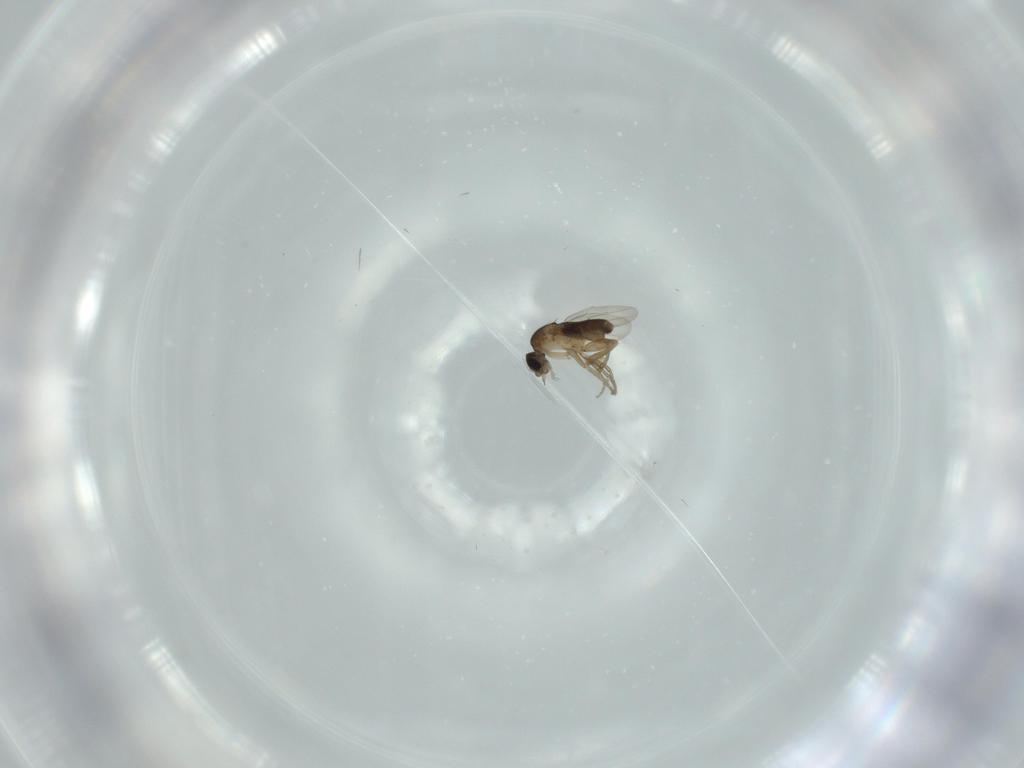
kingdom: Animalia
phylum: Arthropoda
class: Insecta
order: Diptera
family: Phoridae
